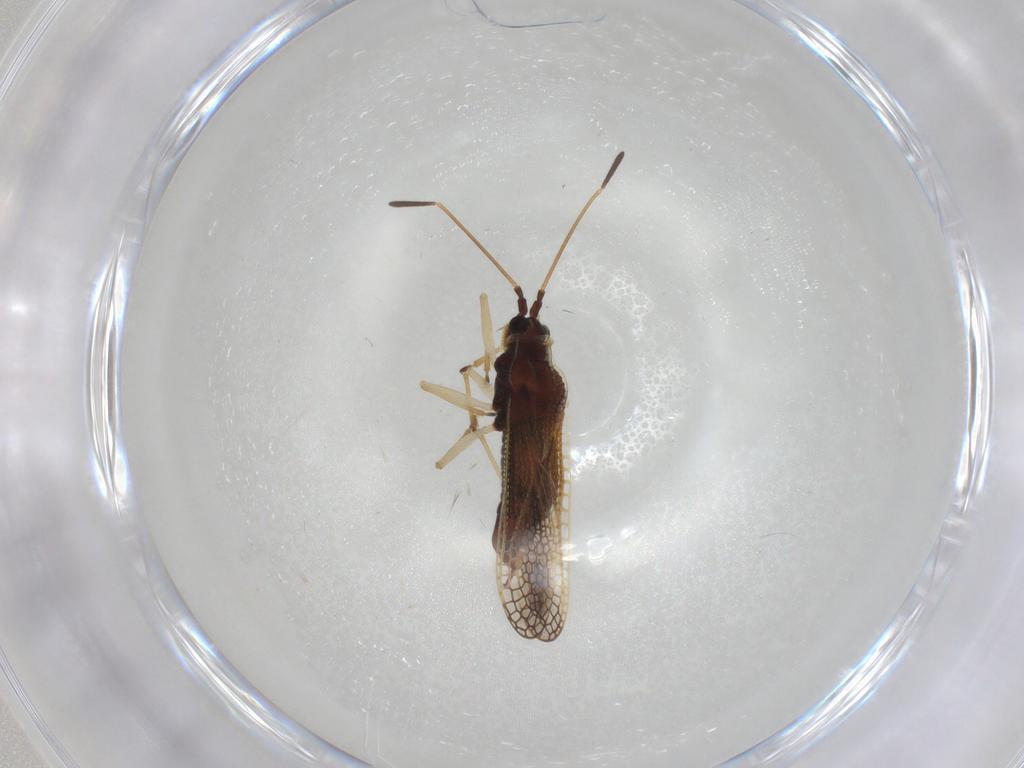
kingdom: Animalia
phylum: Arthropoda
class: Insecta
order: Hemiptera
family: Tingidae
